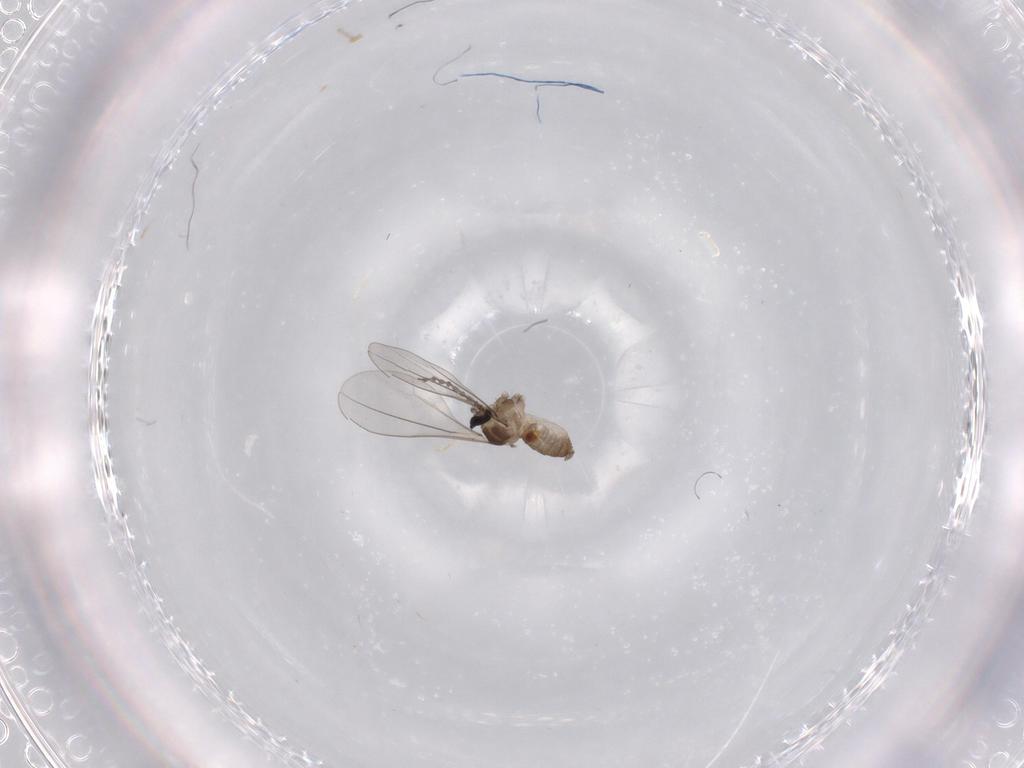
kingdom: Animalia
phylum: Arthropoda
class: Insecta
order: Diptera
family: Cecidomyiidae
